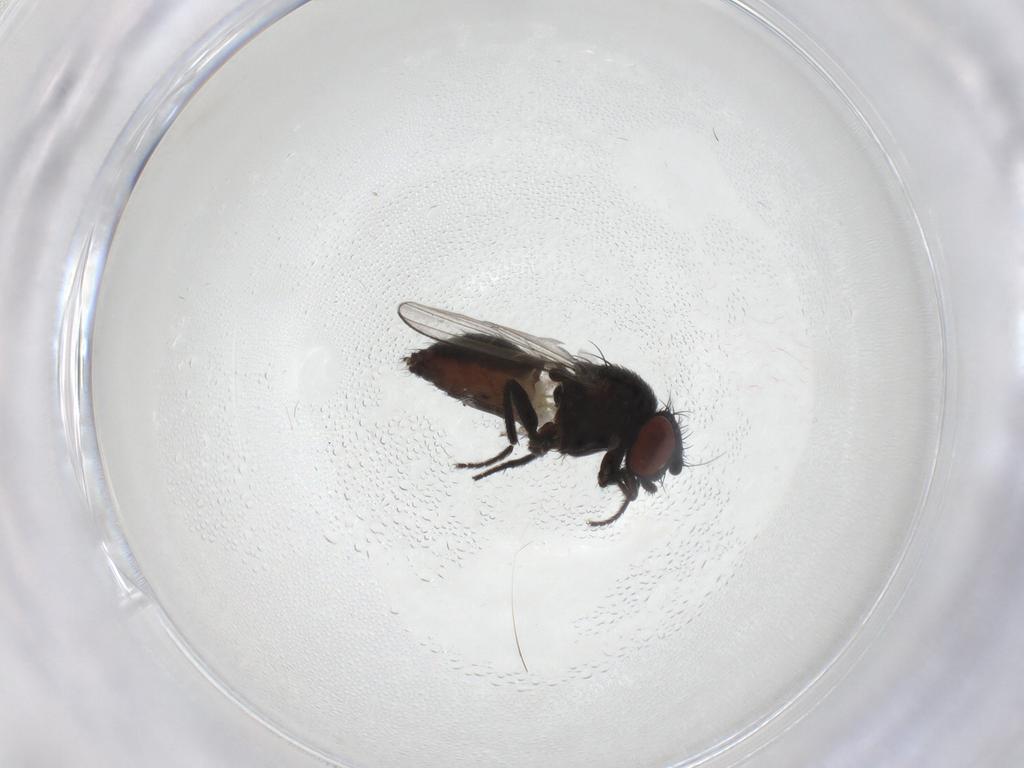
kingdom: Animalia
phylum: Arthropoda
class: Insecta
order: Diptera
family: Milichiidae
